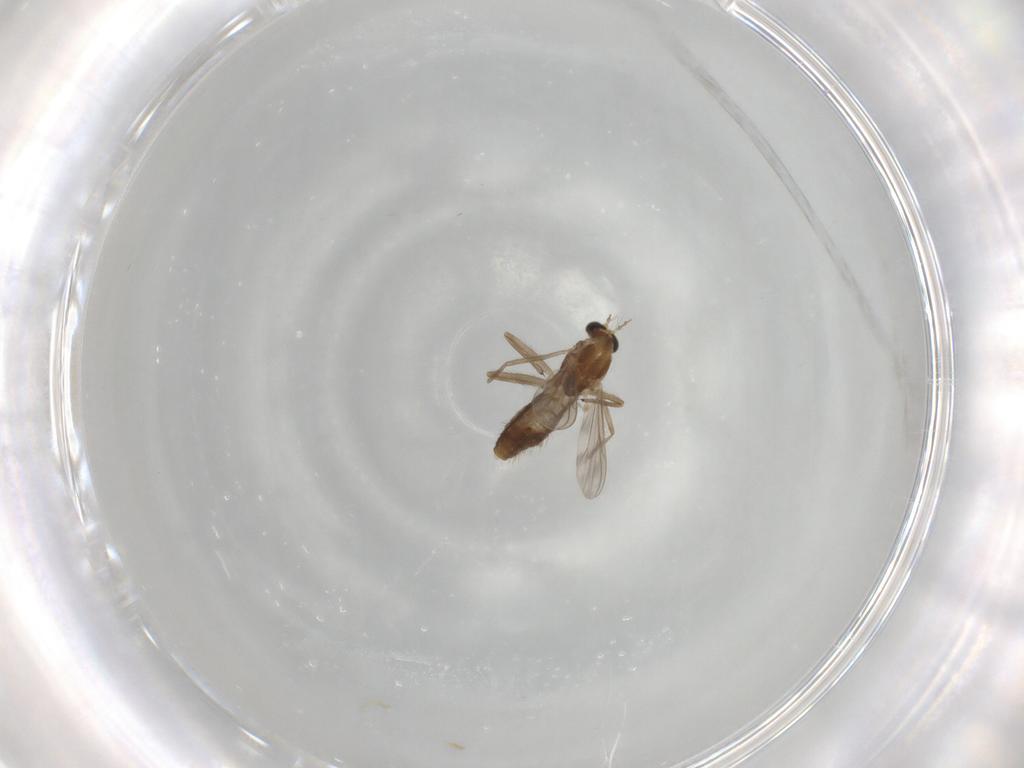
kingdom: Animalia
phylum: Arthropoda
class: Insecta
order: Diptera
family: Chironomidae
